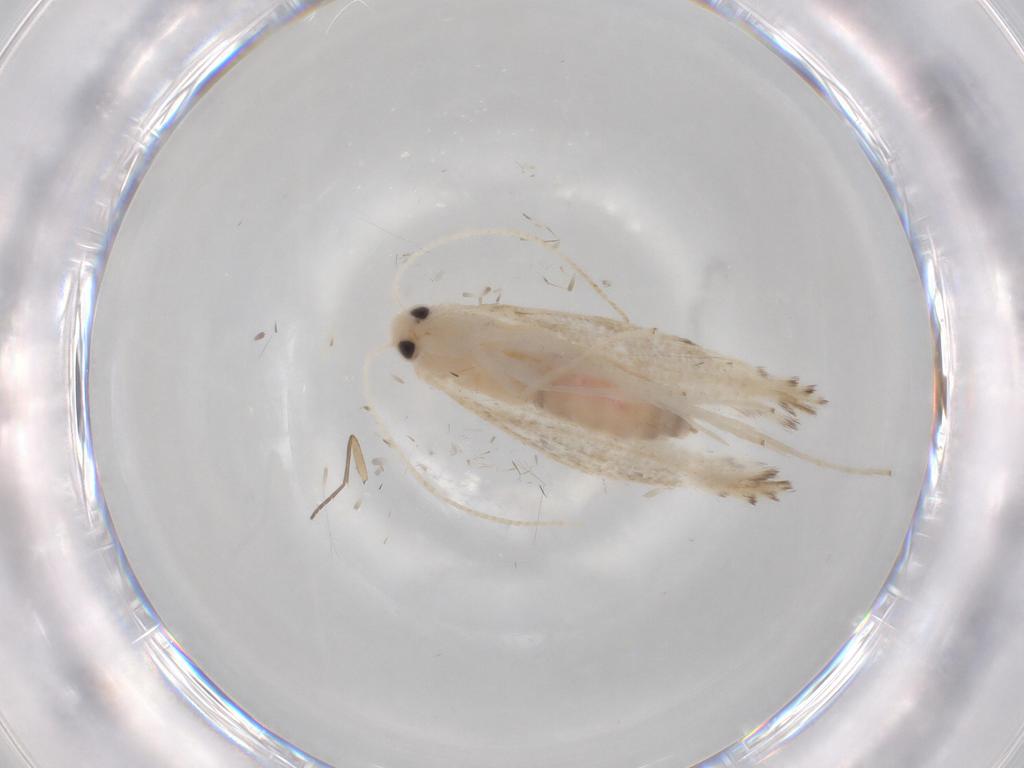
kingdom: Animalia
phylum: Arthropoda
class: Insecta
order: Lepidoptera
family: Gracillariidae
